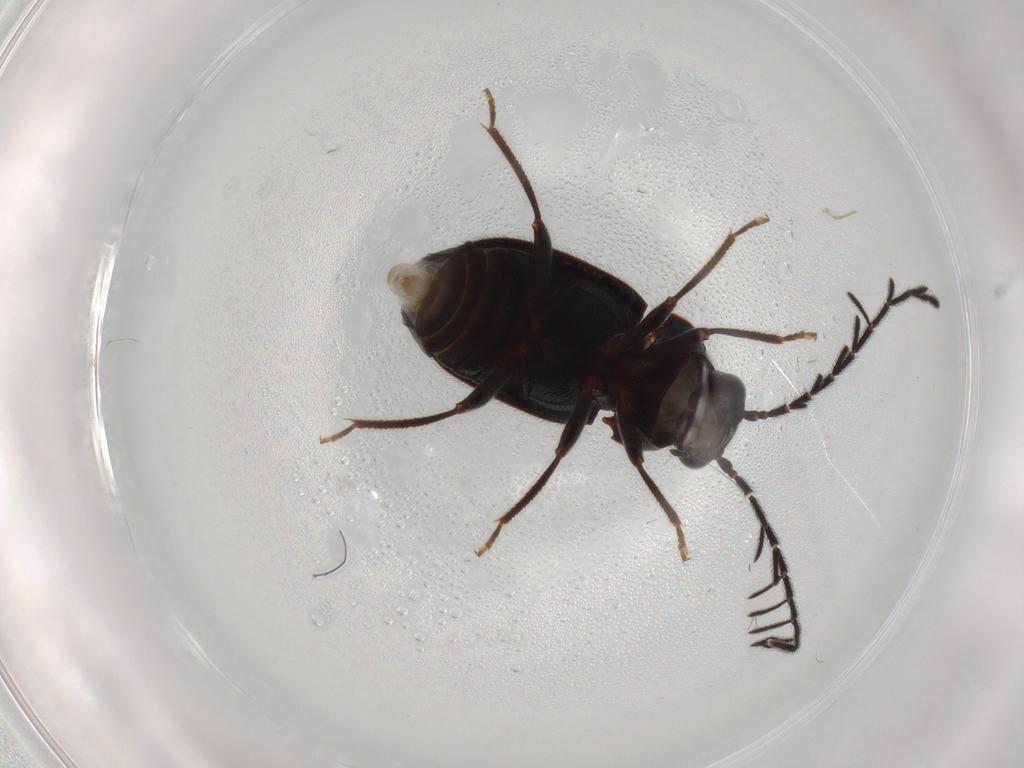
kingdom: Animalia
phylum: Arthropoda
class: Insecta
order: Coleoptera
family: Ptilodactylidae
